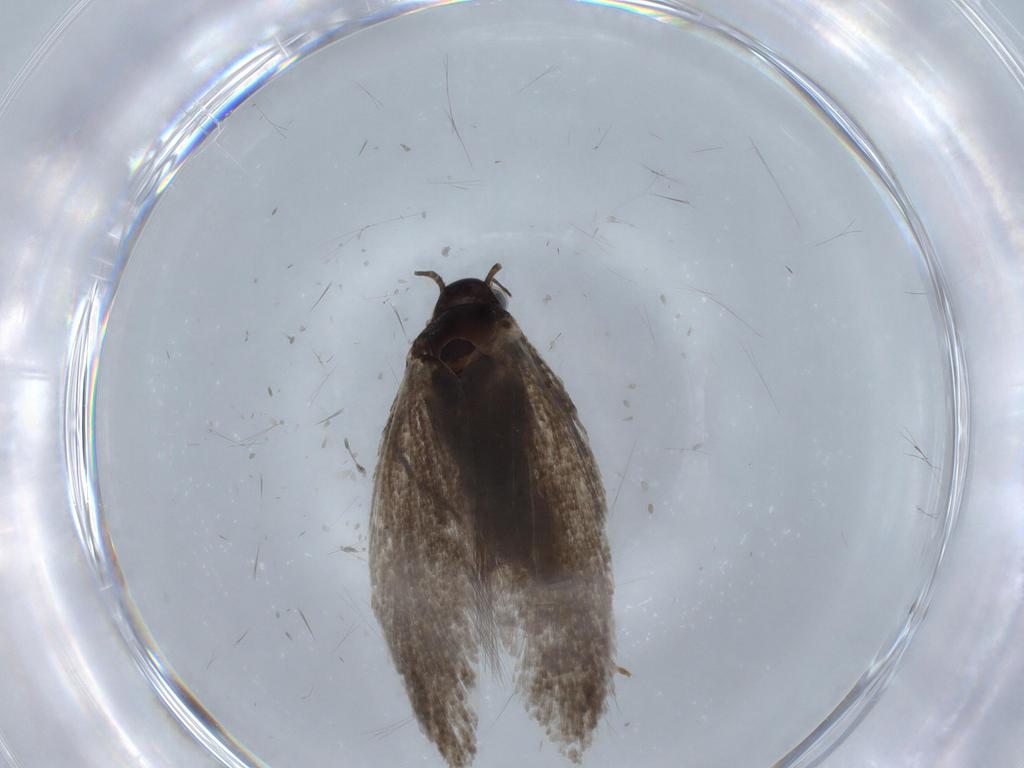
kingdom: Animalia
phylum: Arthropoda
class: Insecta
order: Lepidoptera
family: Oecophoridae
